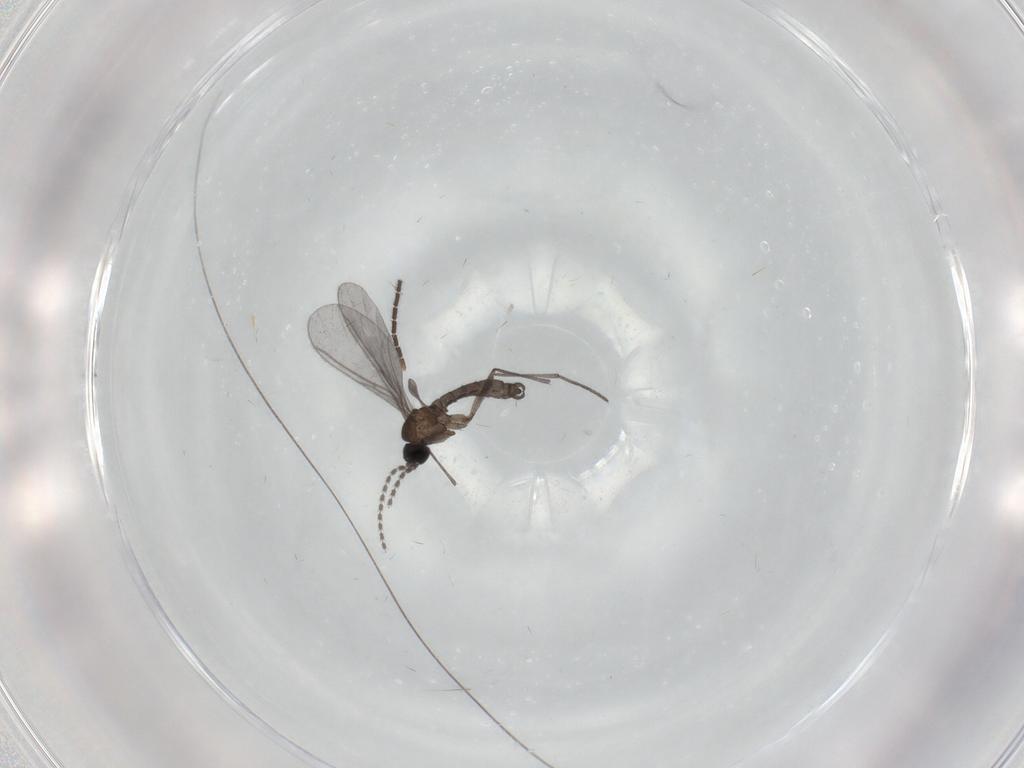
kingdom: Animalia
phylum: Arthropoda
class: Insecta
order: Diptera
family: Sciaridae
